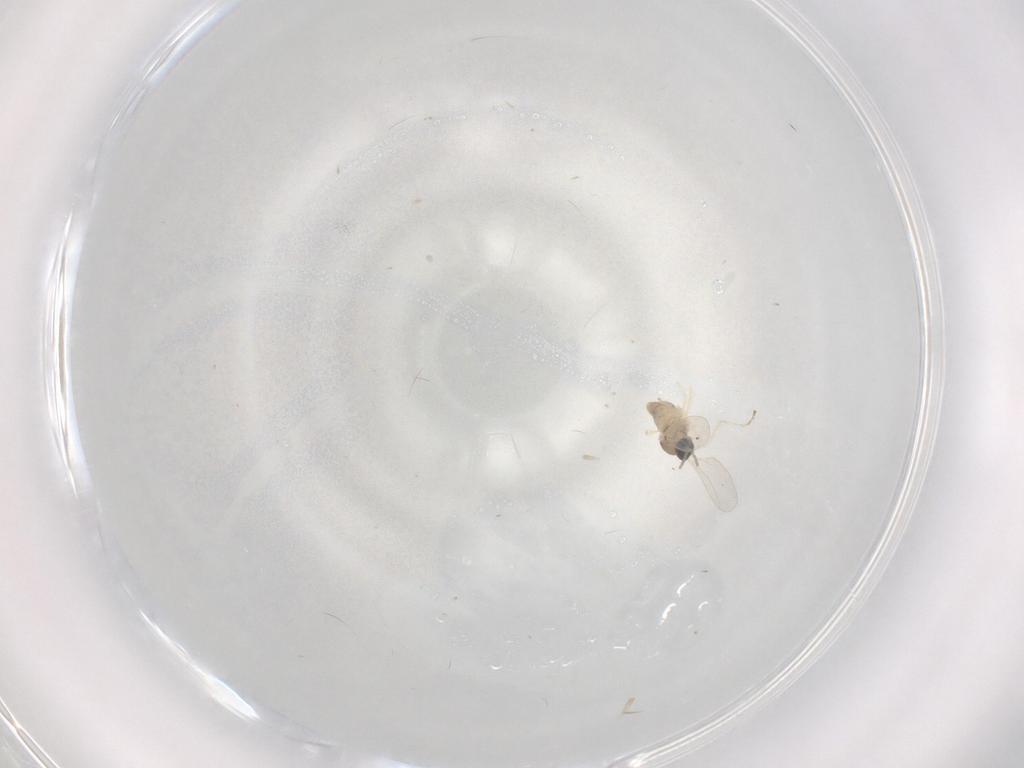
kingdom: Animalia
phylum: Arthropoda
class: Insecta
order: Diptera
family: Cecidomyiidae
